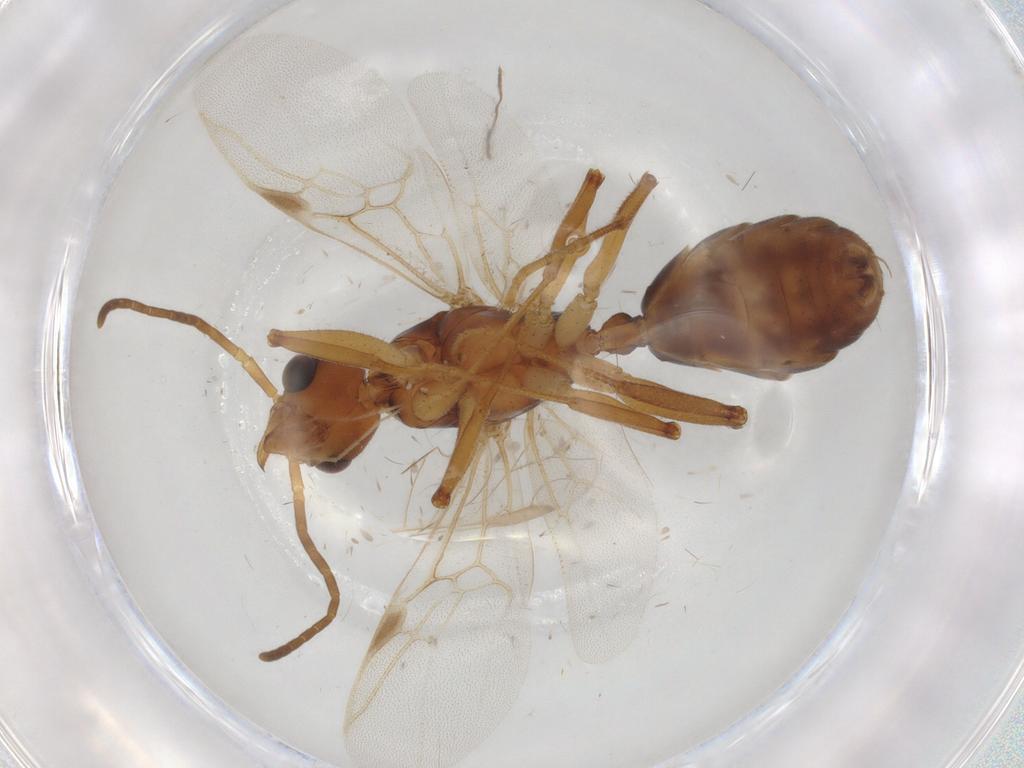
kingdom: Animalia
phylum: Arthropoda
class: Insecta
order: Hymenoptera
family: Formicidae
